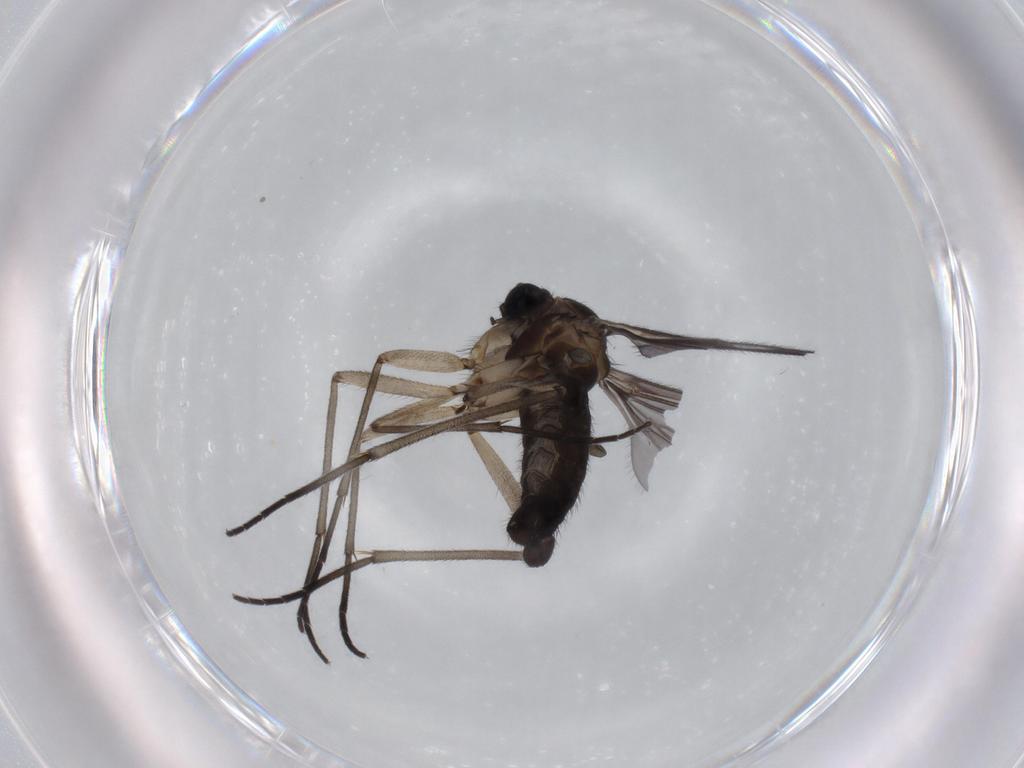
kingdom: Animalia
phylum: Arthropoda
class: Insecta
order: Diptera
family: Sciaridae
